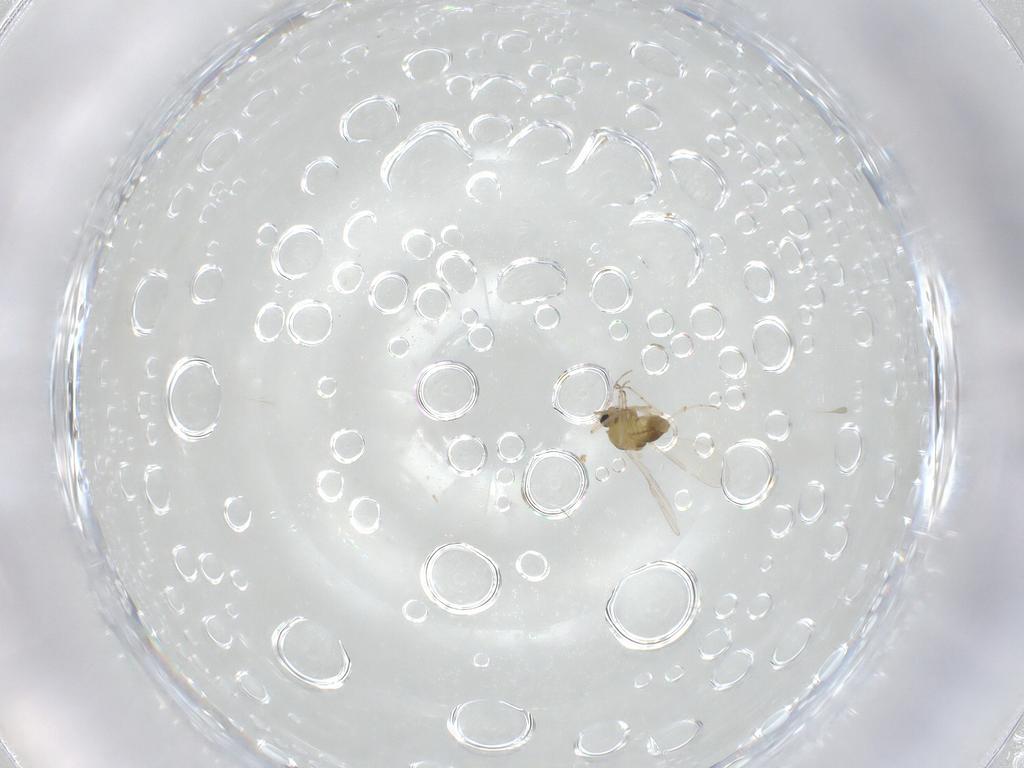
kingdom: Animalia
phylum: Arthropoda
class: Insecta
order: Diptera
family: Chironomidae
